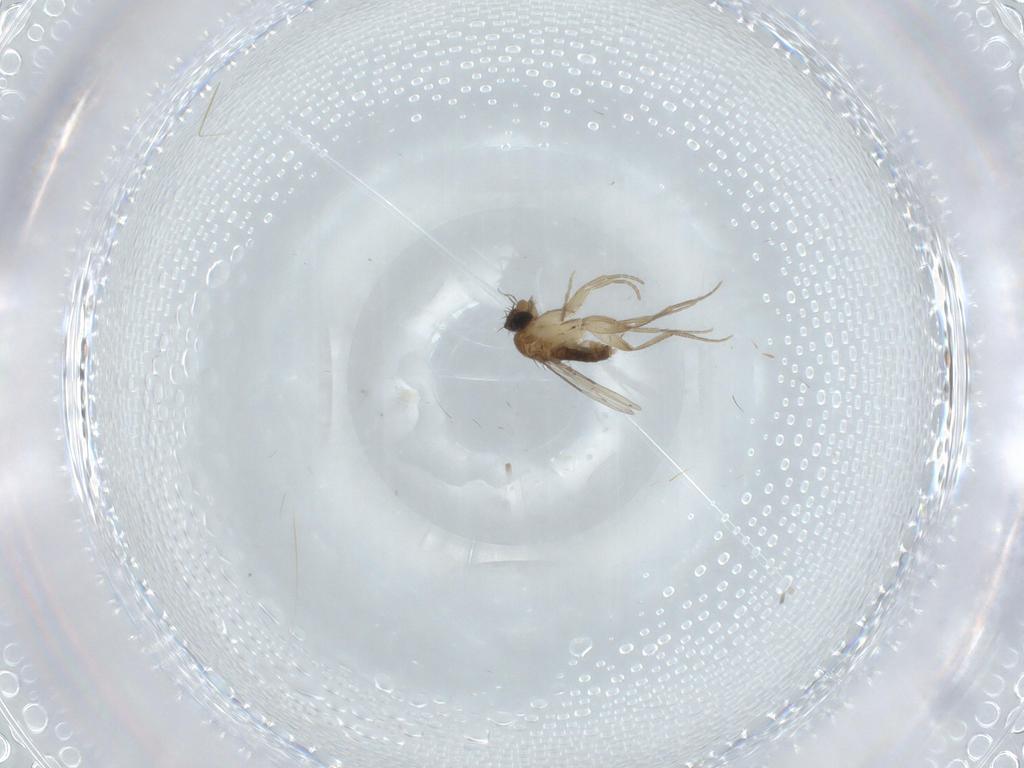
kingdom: Animalia
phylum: Arthropoda
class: Insecta
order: Diptera
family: Phoridae
